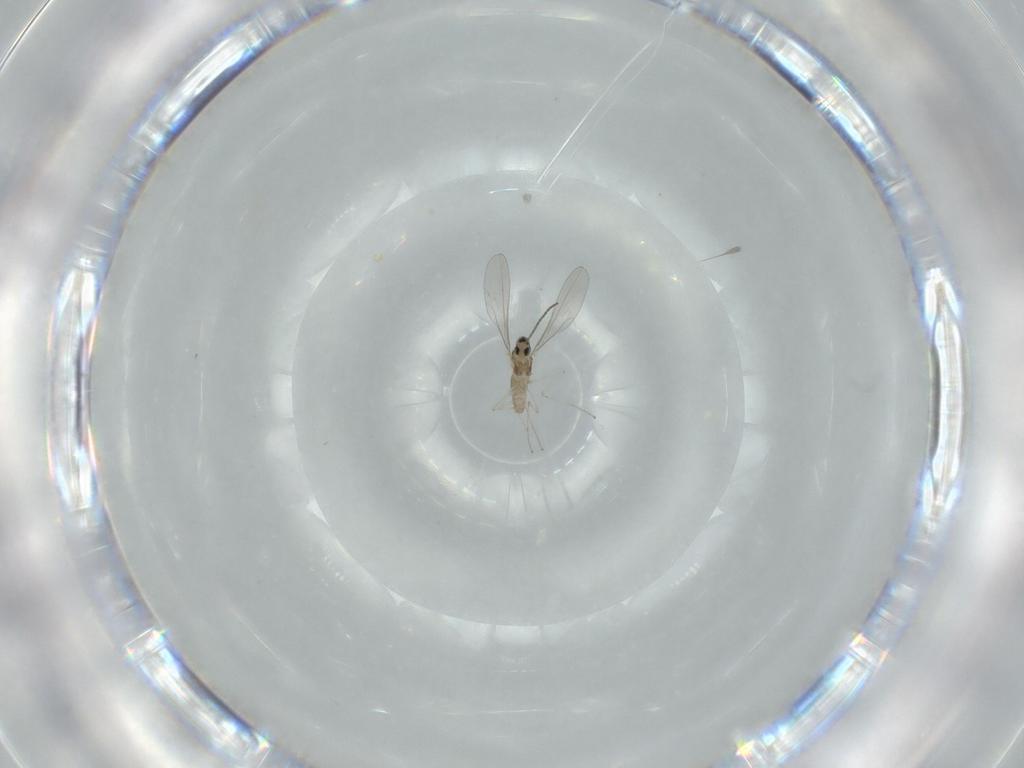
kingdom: Animalia
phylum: Arthropoda
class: Insecta
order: Diptera
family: Cecidomyiidae
